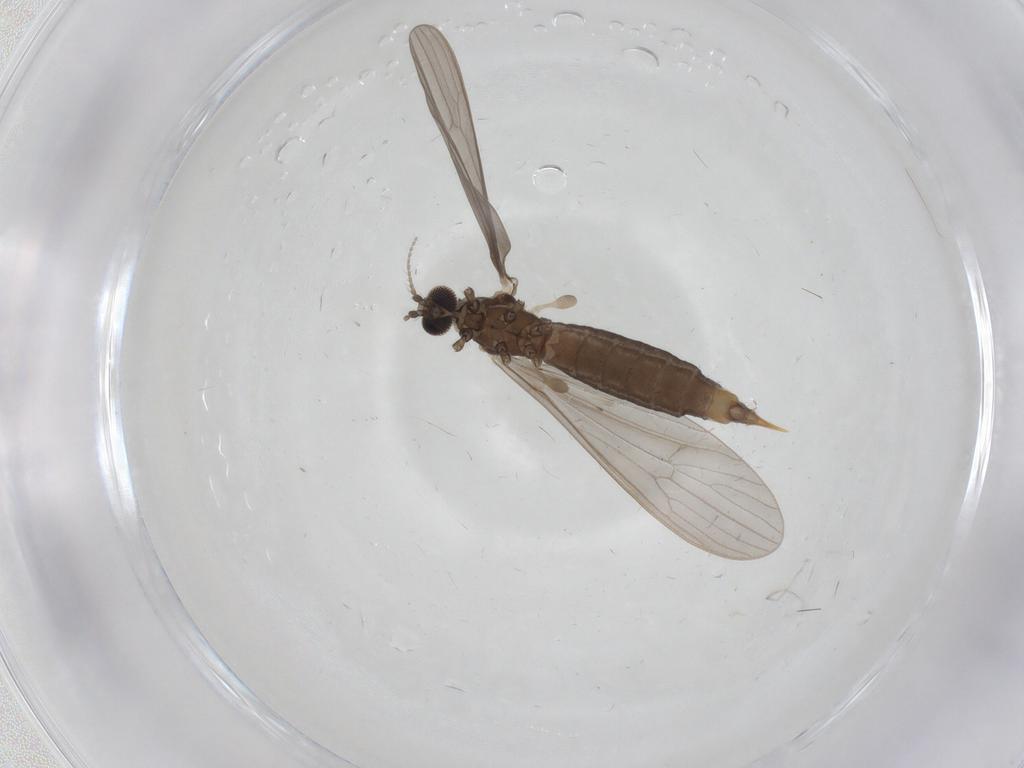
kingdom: Animalia
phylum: Arthropoda
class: Insecta
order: Diptera
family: Limoniidae
